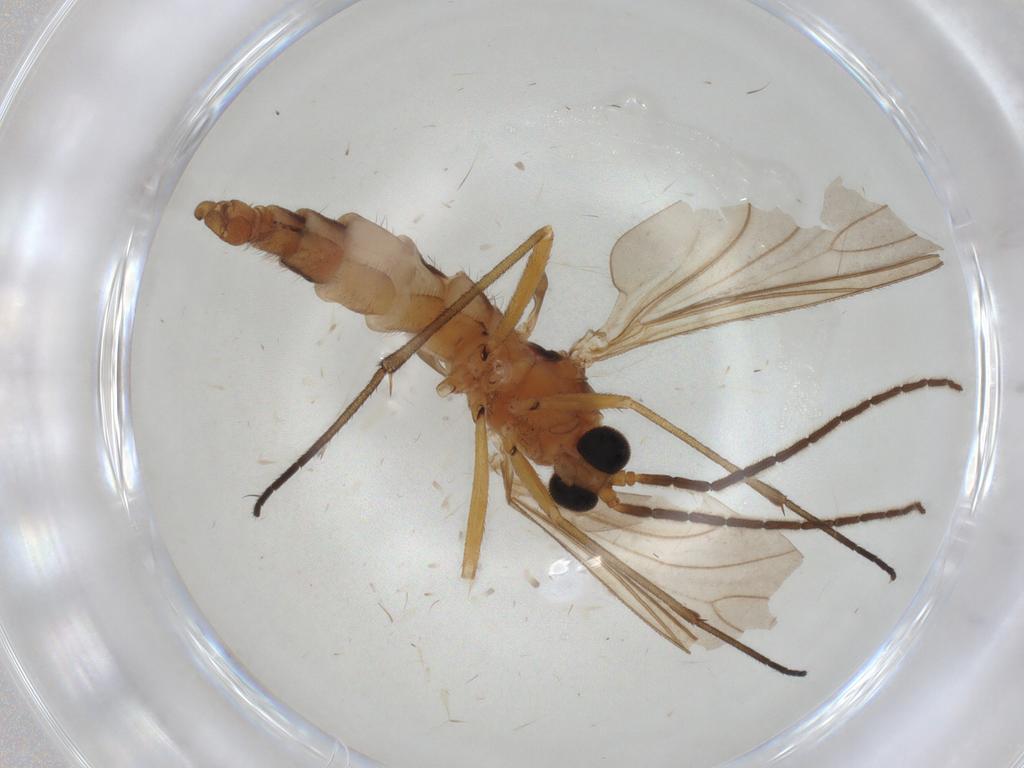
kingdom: Animalia
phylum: Arthropoda
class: Insecta
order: Diptera
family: Sciaridae
